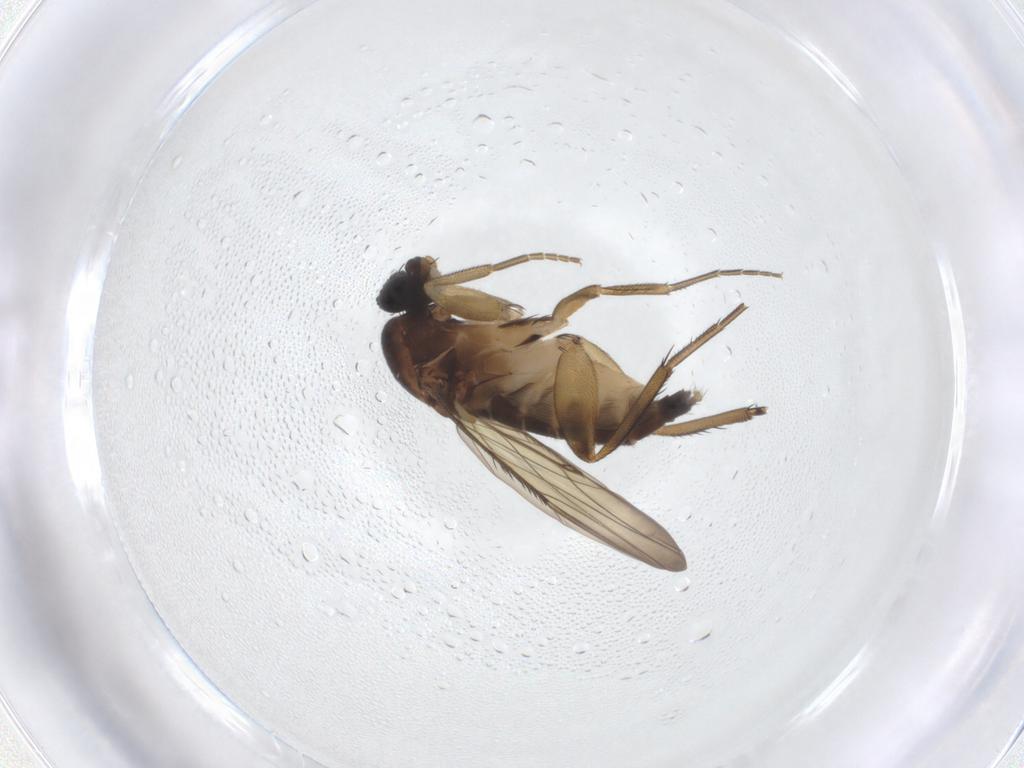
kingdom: Animalia
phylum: Arthropoda
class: Insecta
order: Diptera
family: Phoridae
